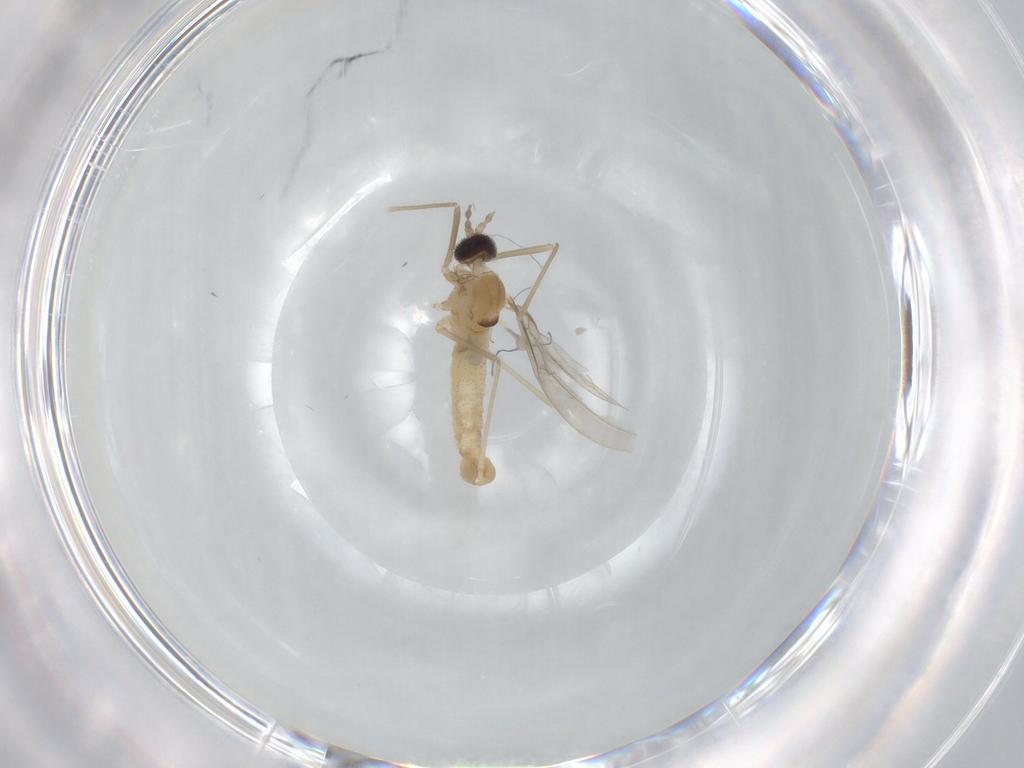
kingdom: Animalia
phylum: Arthropoda
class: Insecta
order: Diptera
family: Cecidomyiidae
